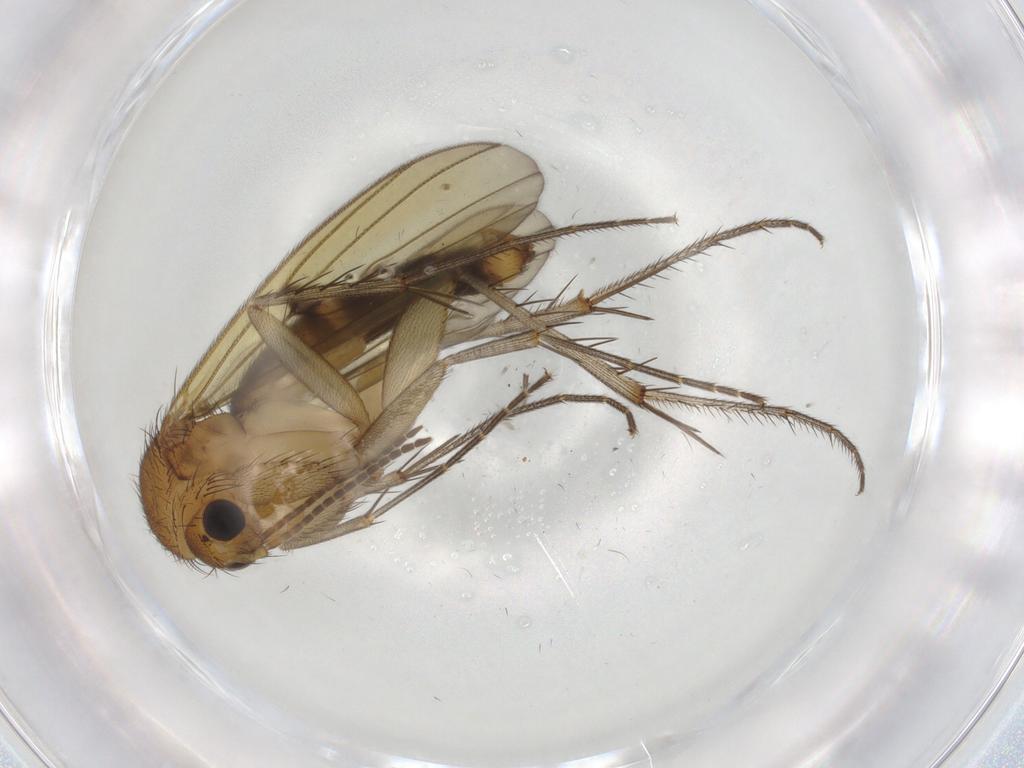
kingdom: Animalia
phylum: Arthropoda
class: Insecta
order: Diptera
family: Cecidomyiidae
